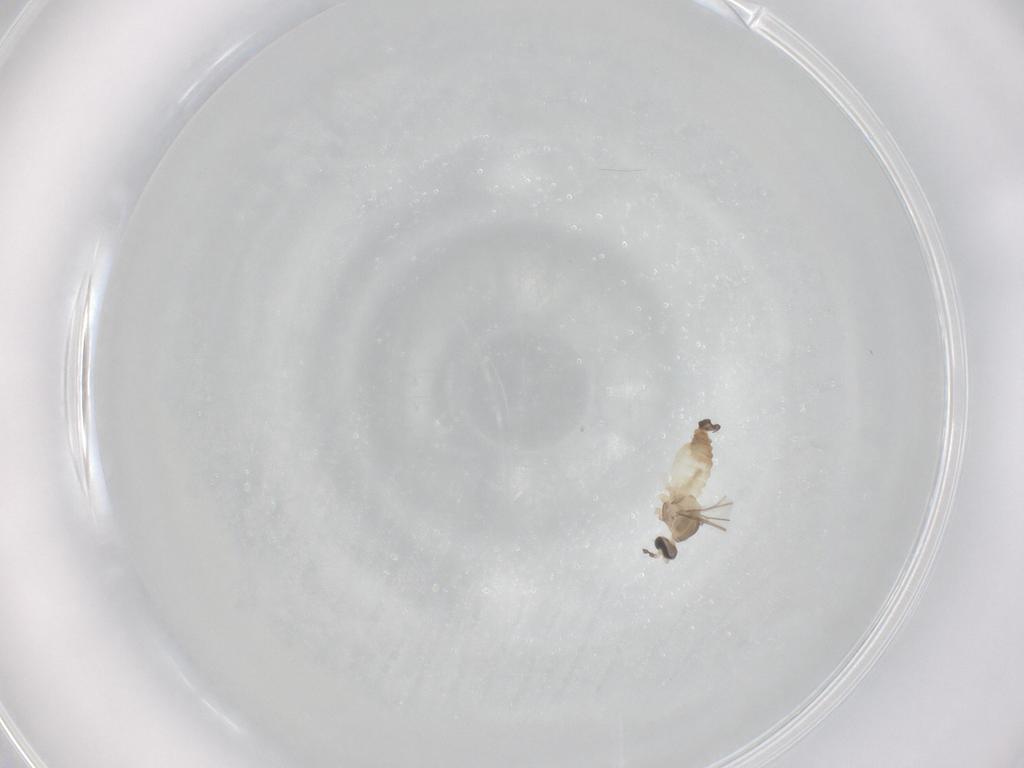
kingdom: Animalia
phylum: Arthropoda
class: Insecta
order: Diptera
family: Cecidomyiidae
